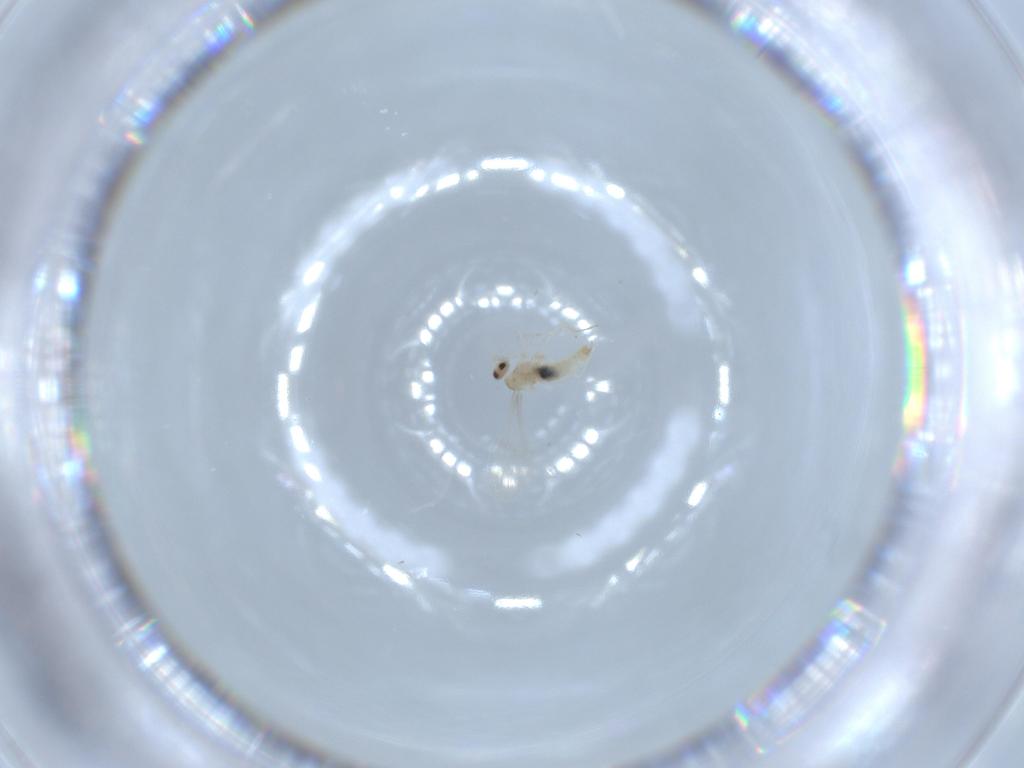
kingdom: Animalia
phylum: Arthropoda
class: Insecta
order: Diptera
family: Cecidomyiidae
